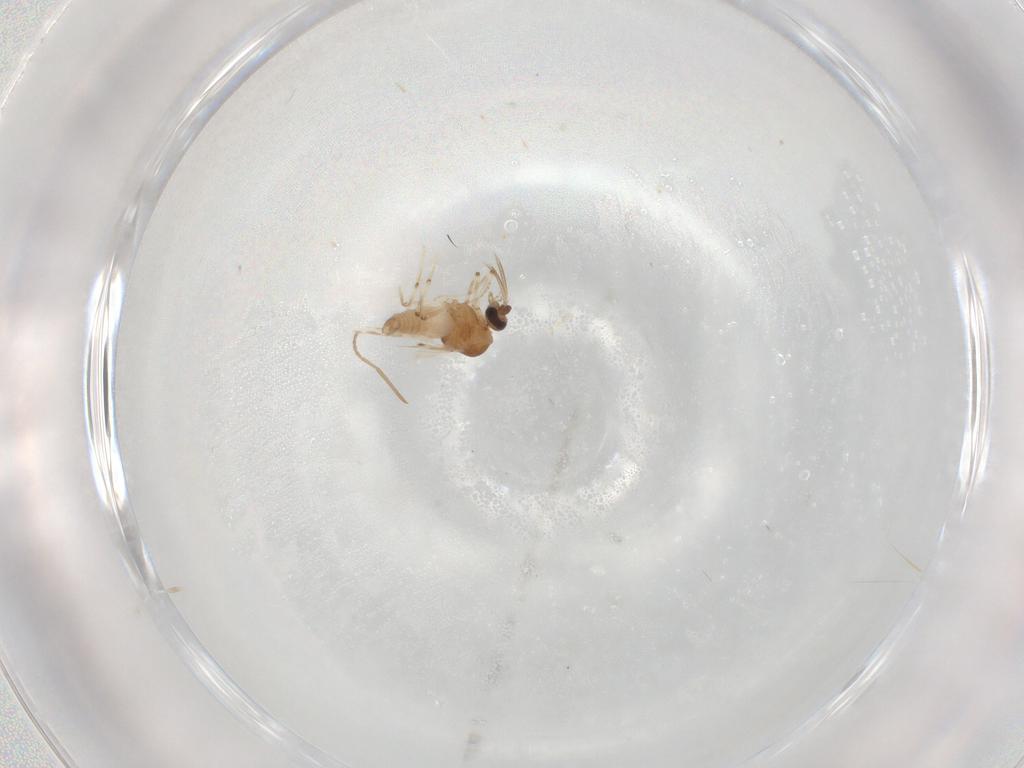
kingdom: Animalia
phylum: Arthropoda
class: Insecta
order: Diptera
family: Cecidomyiidae
